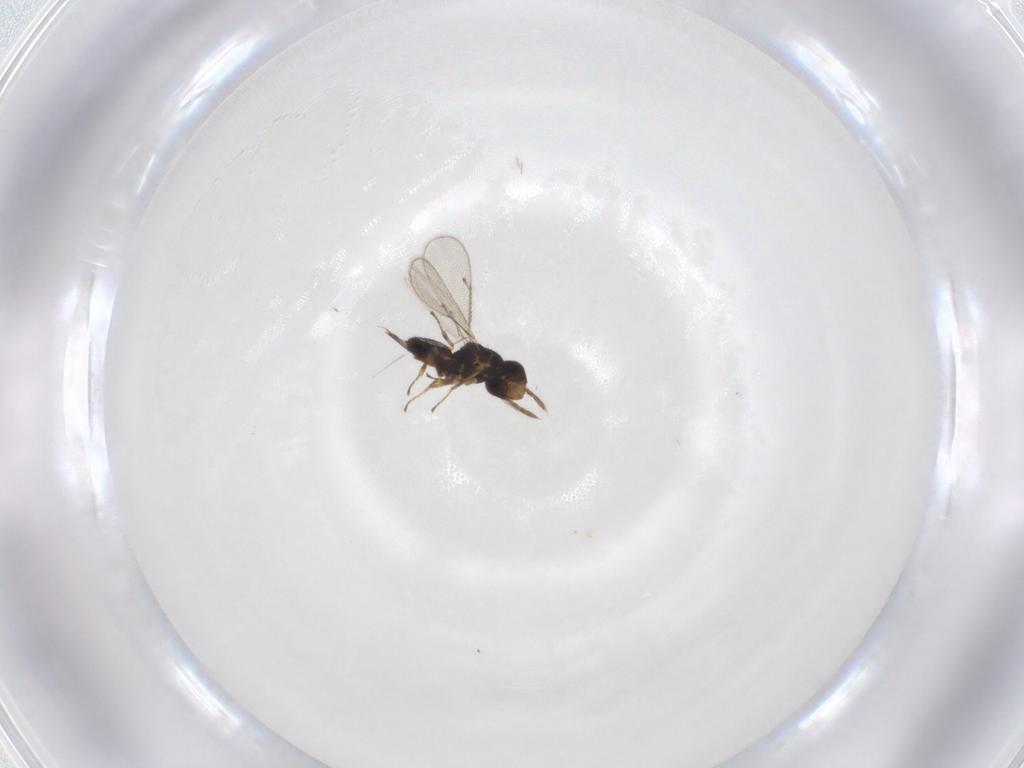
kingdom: Animalia
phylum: Arthropoda
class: Insecta
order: Hymenoptera
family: Eulophidae
